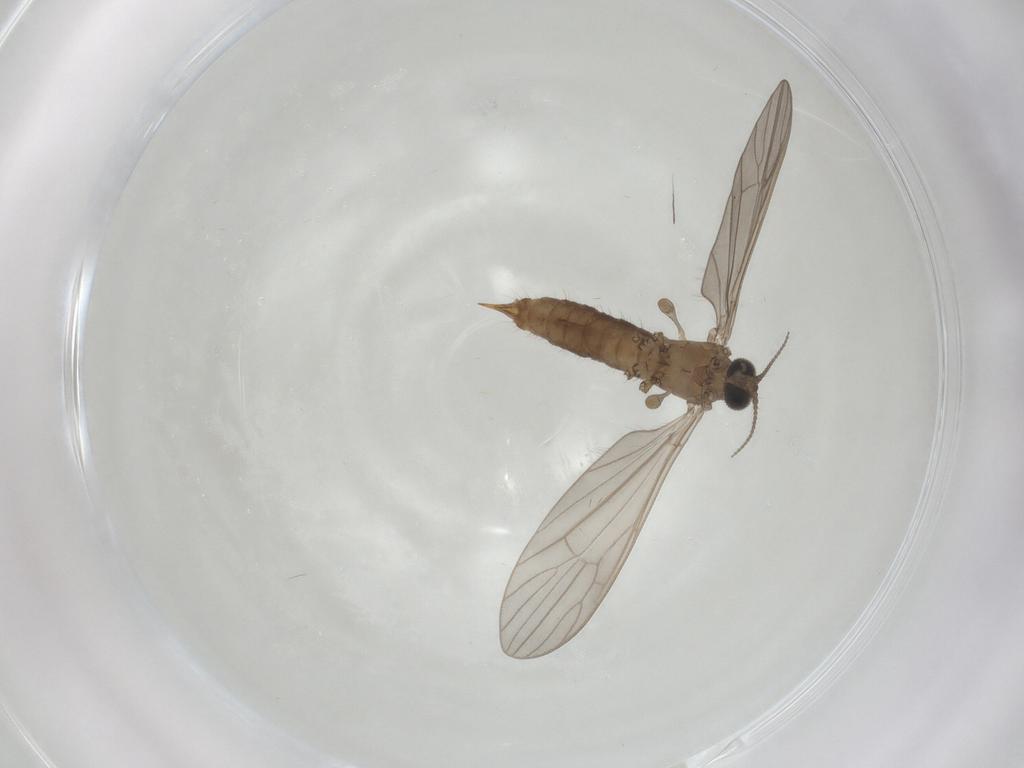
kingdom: Animalia
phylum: Arthropoda
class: Insecta
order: Diptera
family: Limoniidae
